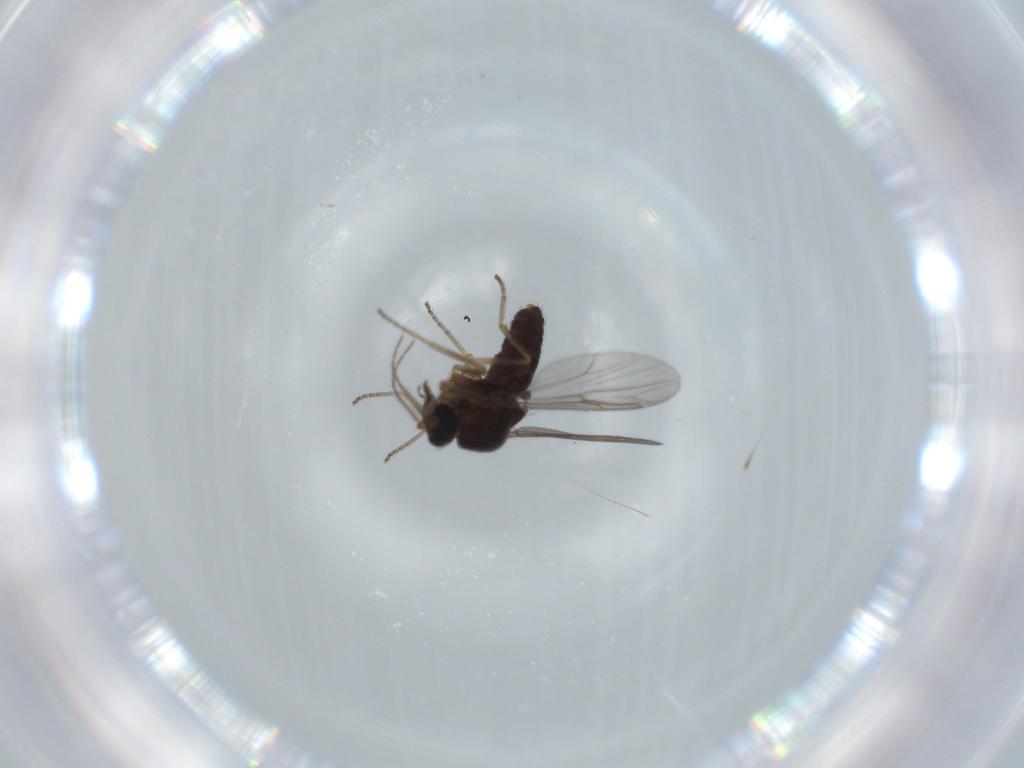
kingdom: Animalia
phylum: Arthropoda
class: Insecta
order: Diptera
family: Ceratopogonidae
